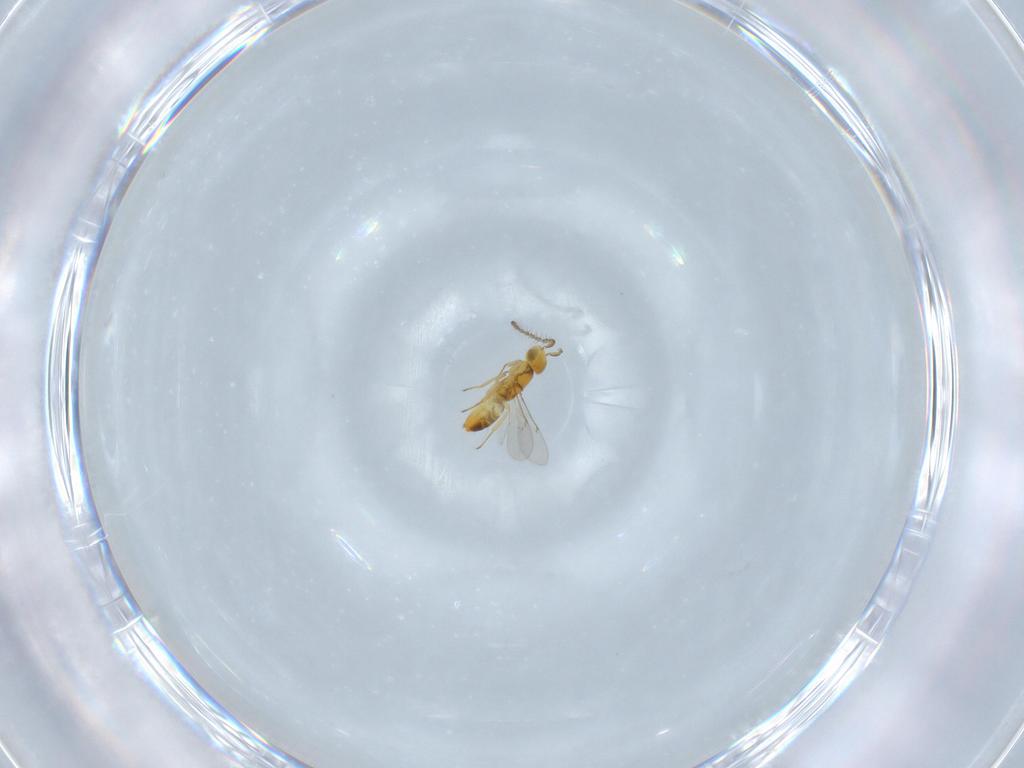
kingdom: Animalia
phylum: Arthropoda
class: Insecta
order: Hymenoptera
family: Encyrtidae
